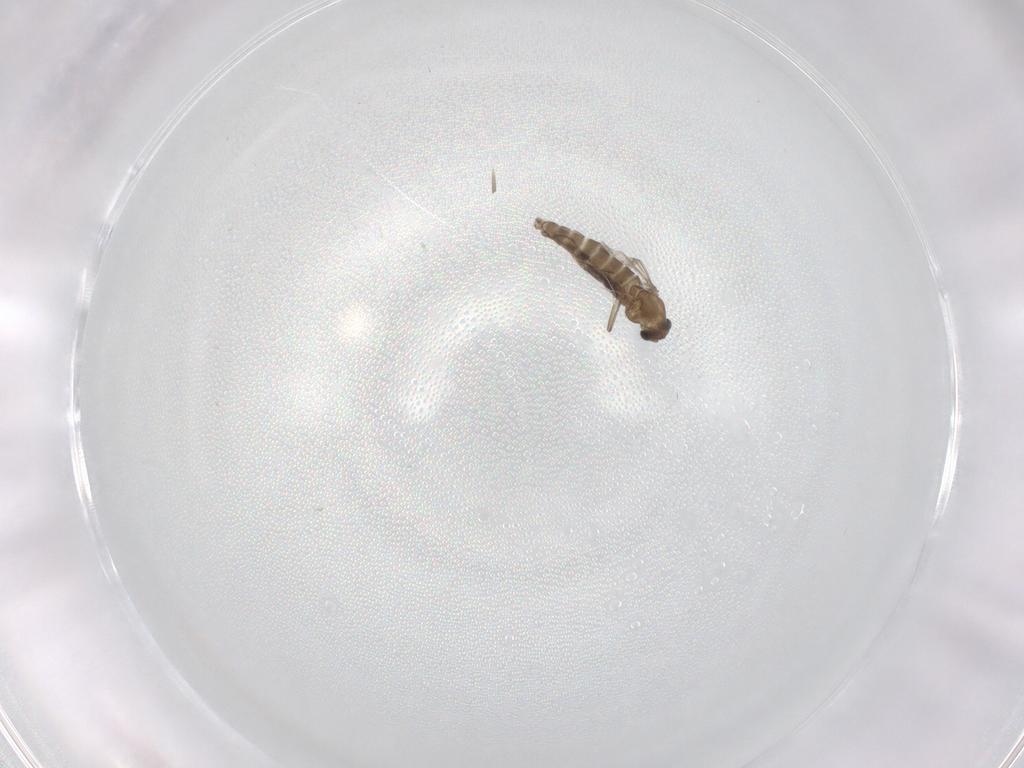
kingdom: Animalia
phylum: Arthropoda
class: Insecta
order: Diptera
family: Chironomidae
